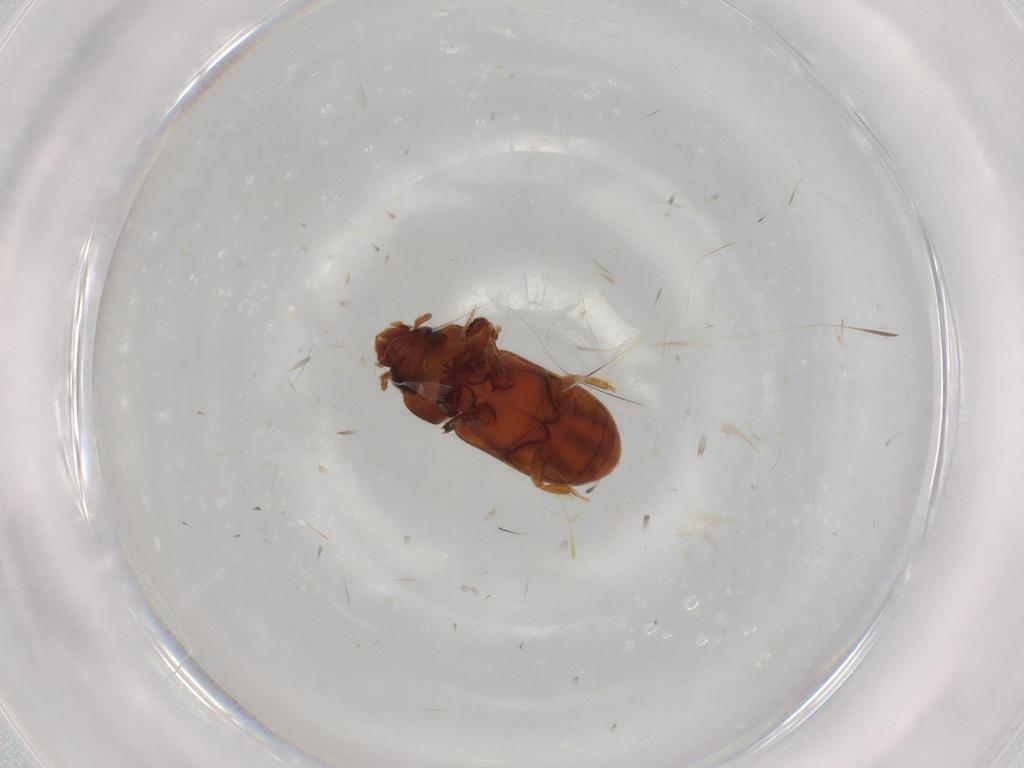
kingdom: Animalia
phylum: Arthropoda
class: Insecta
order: Coleoptera
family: Heteroceridae
